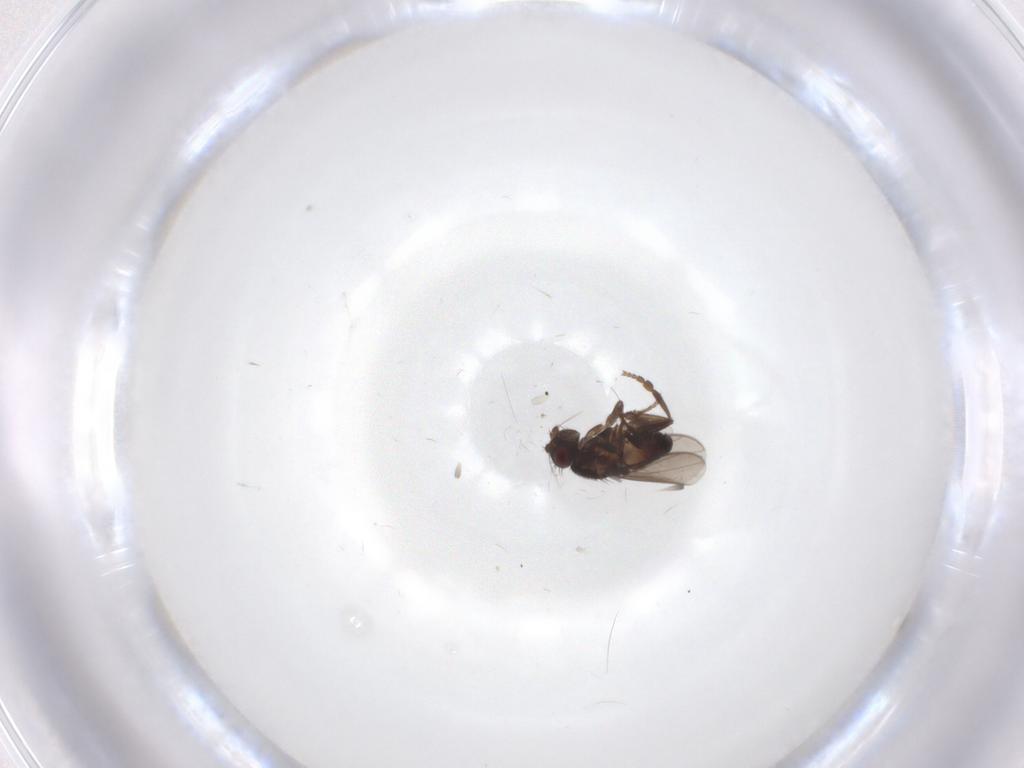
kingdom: Animalia
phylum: Arthropoda
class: Insecta
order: Diptera
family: Sphaeroceridae
